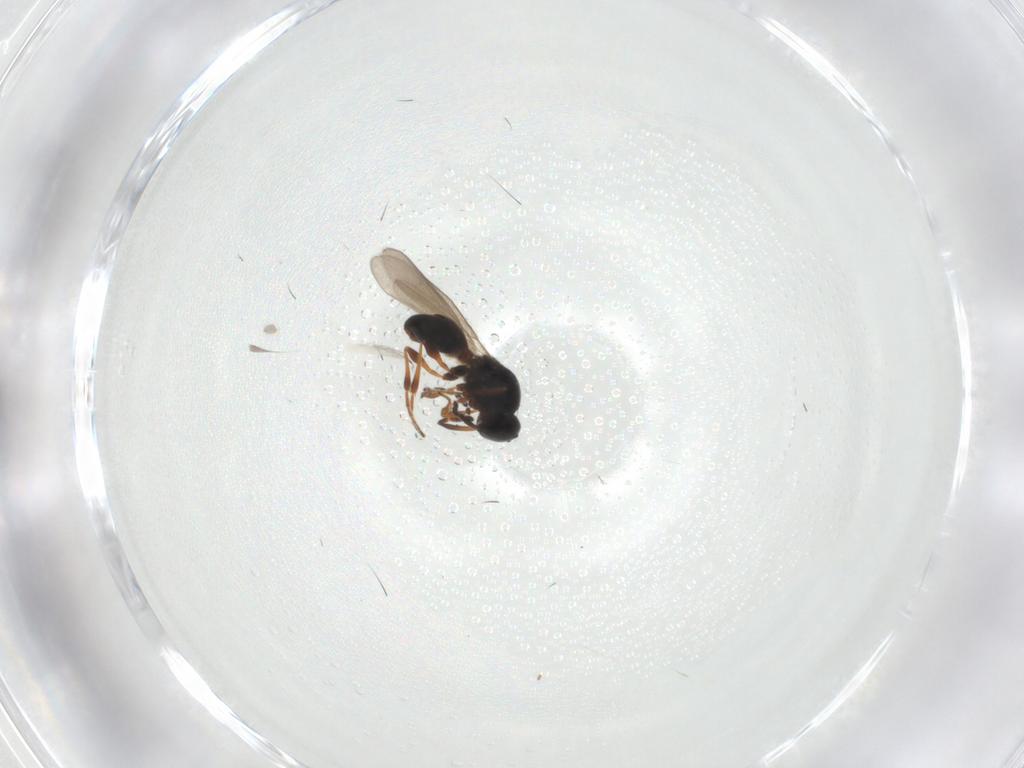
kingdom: Animalia
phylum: Arthropoda
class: Insecta
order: Hymenoptera
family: Platygastridae
